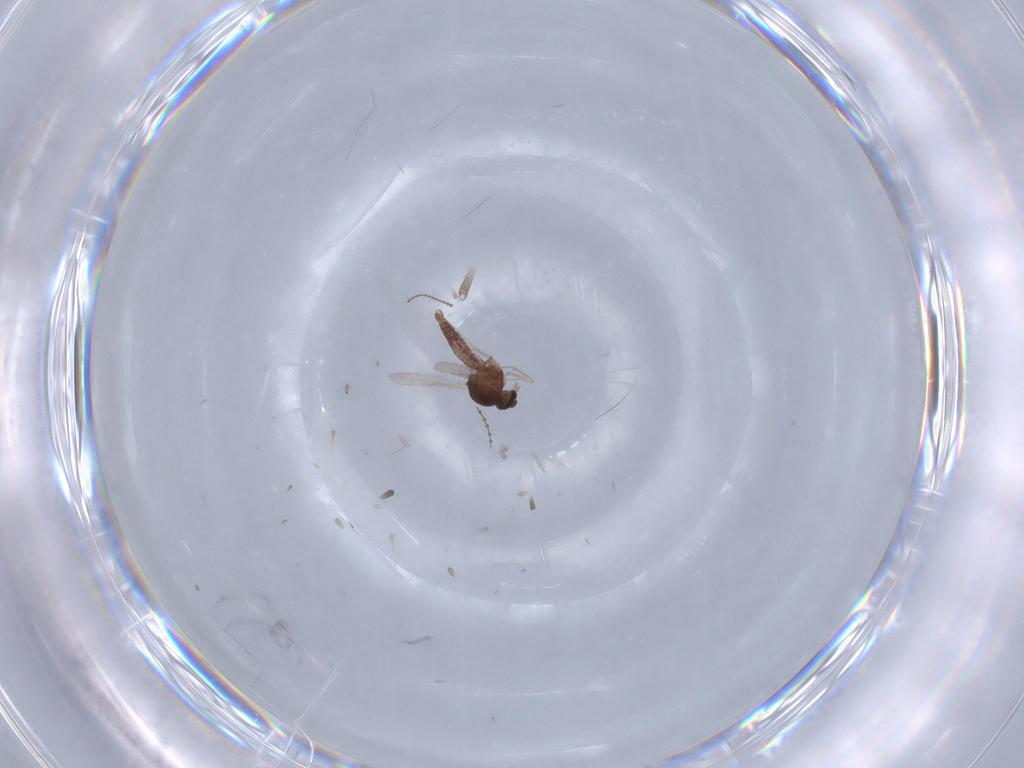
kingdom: Animalia
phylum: Arthropoda
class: Insecta
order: Diptera
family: Ceratopogonidae
